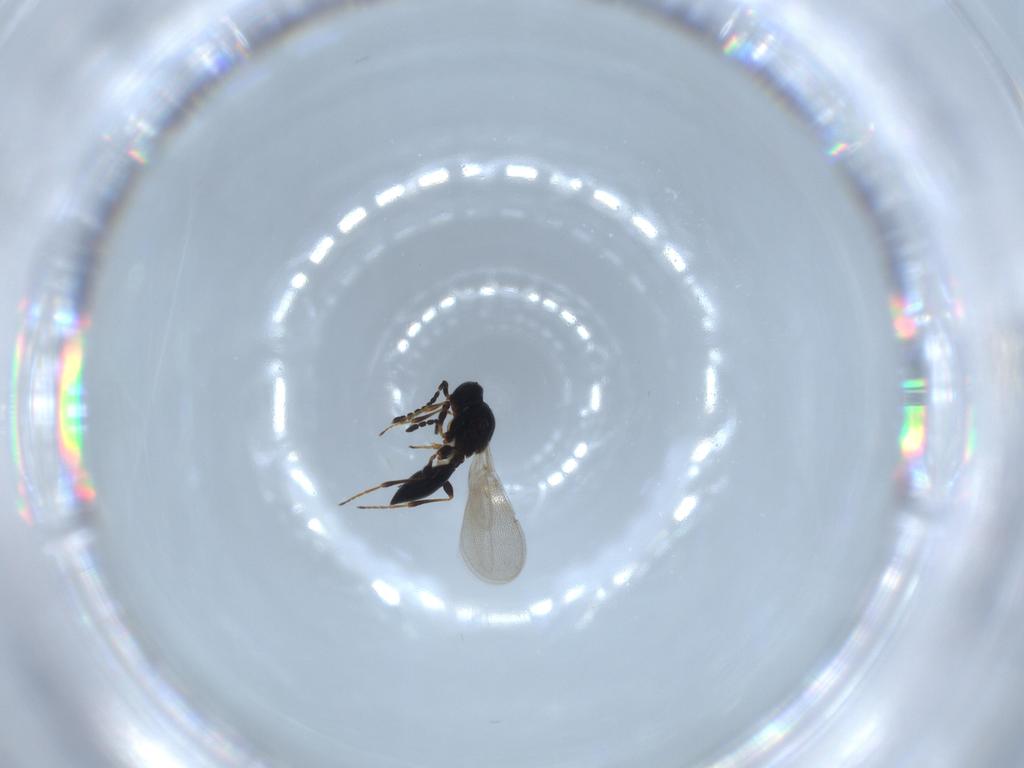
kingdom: Animalia
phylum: Arthropoda
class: Insecta
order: Hymenoptera
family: Platygastridae
